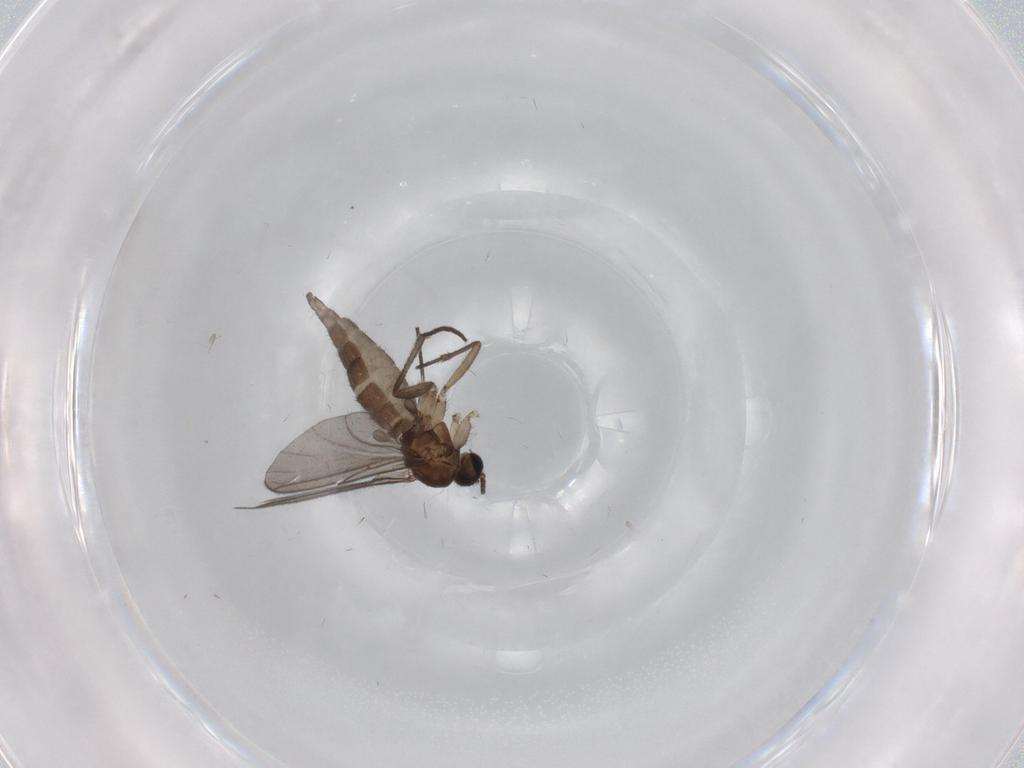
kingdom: Animalia
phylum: Arthropoda
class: Insecta
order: Diptera
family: Sciaridae
